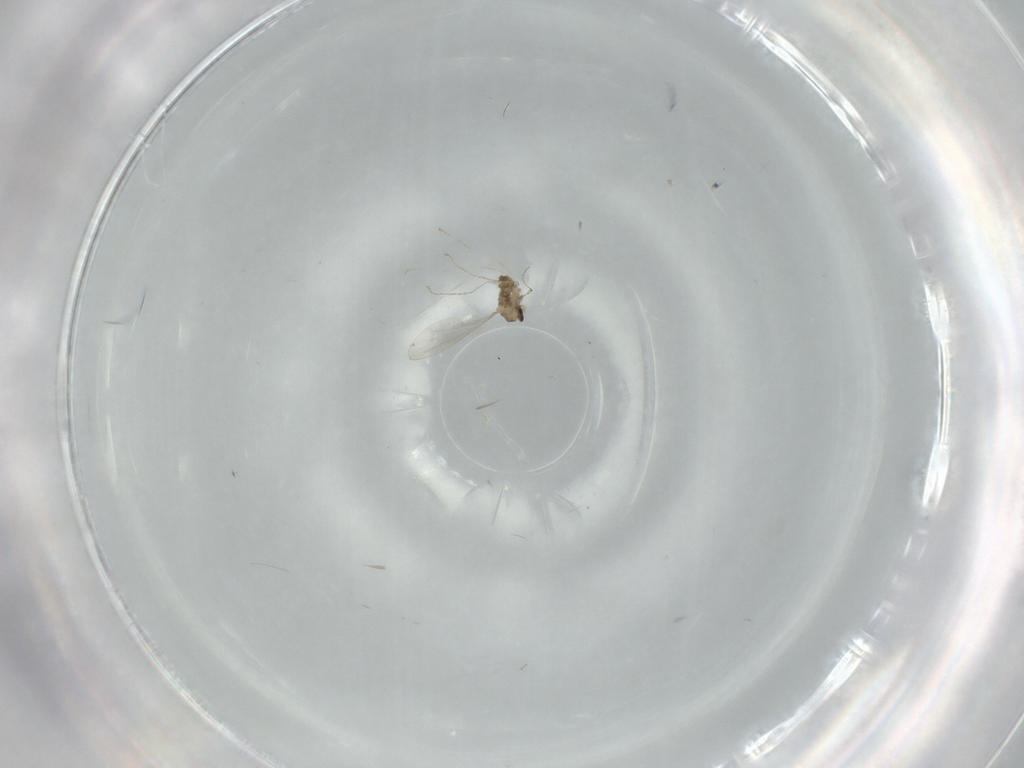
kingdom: Animalia
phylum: Arthropoda
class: Insecta
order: Diptera
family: Cecidomyiidae
